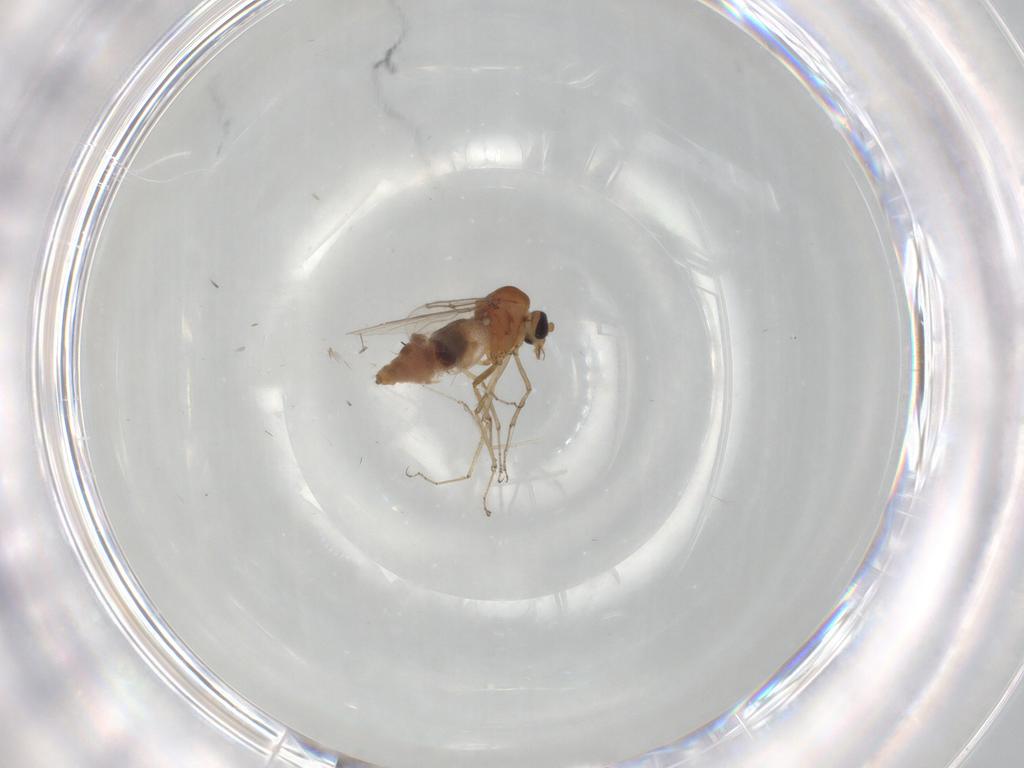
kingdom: Animalia
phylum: Arthropoda
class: Insecta
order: Diptera
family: Ceratopogonidae
